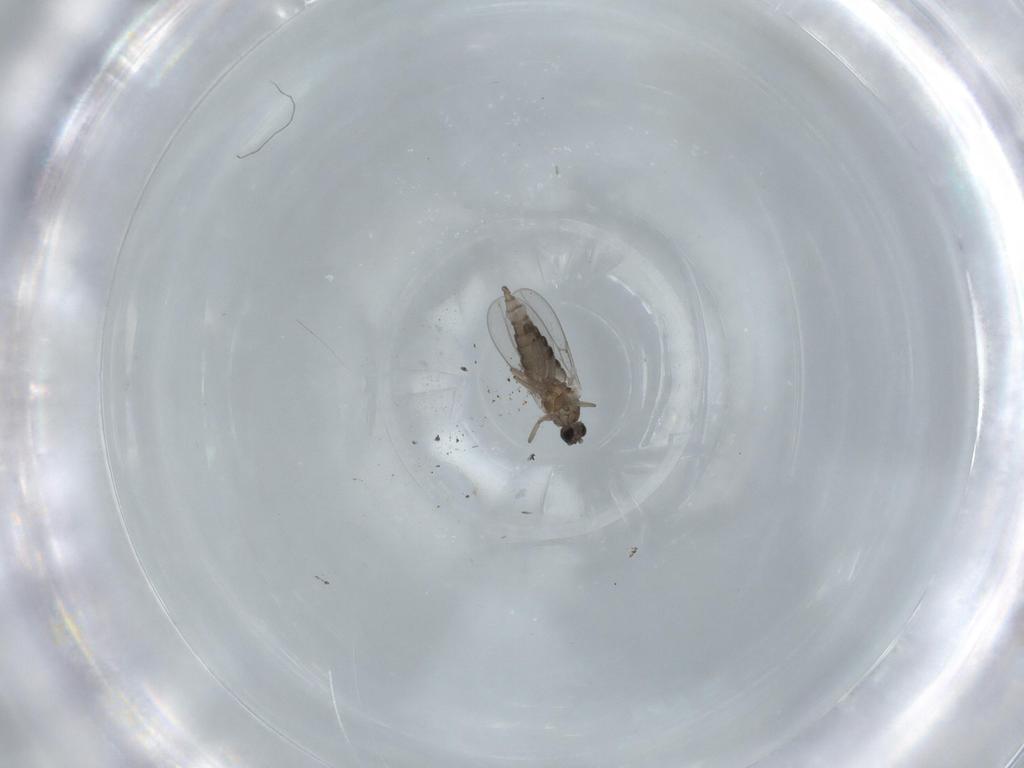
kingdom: Animalia
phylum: Arthropoda
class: Insecta
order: Diptera
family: Cecidomyiidae
